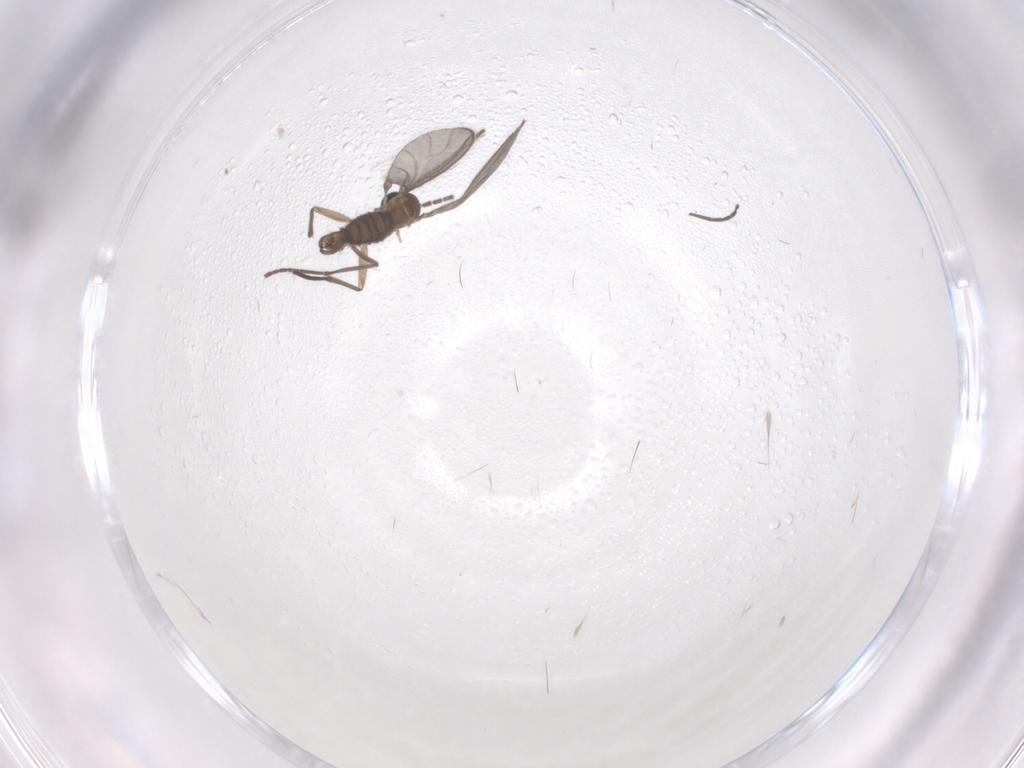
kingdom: Animalia
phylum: Arthropoda
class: Insecta
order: Diptera
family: Sciaridae
